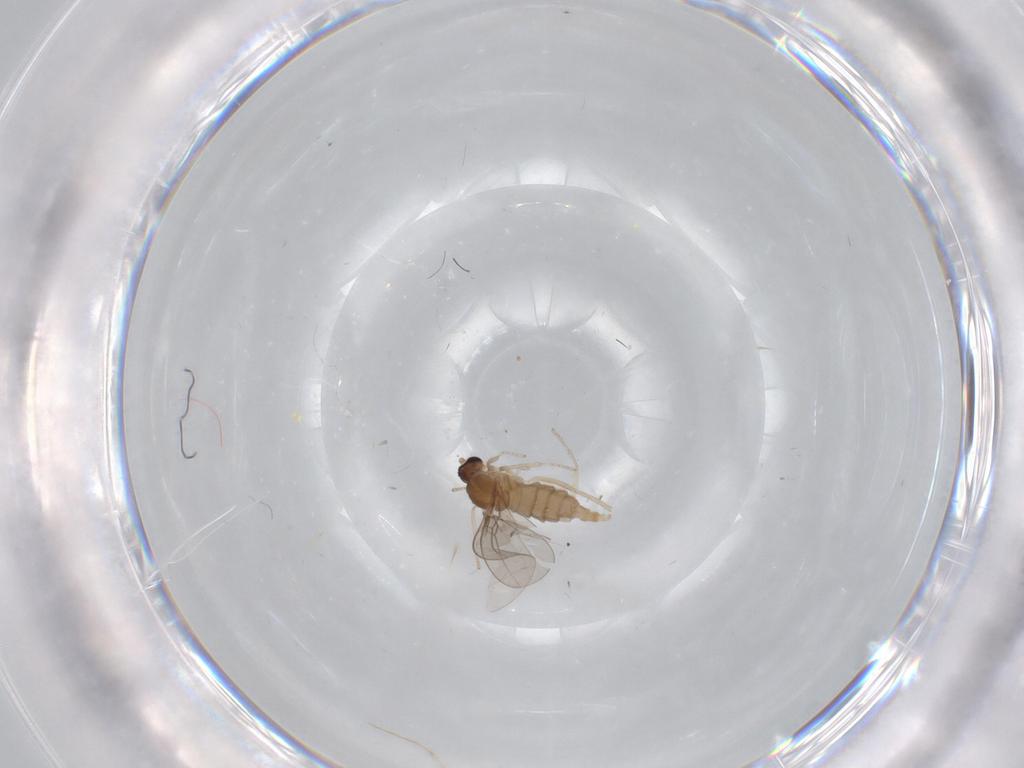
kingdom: Animalia
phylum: Arthropoda
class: Insecta
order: Diptera
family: Cecidomyiidae
